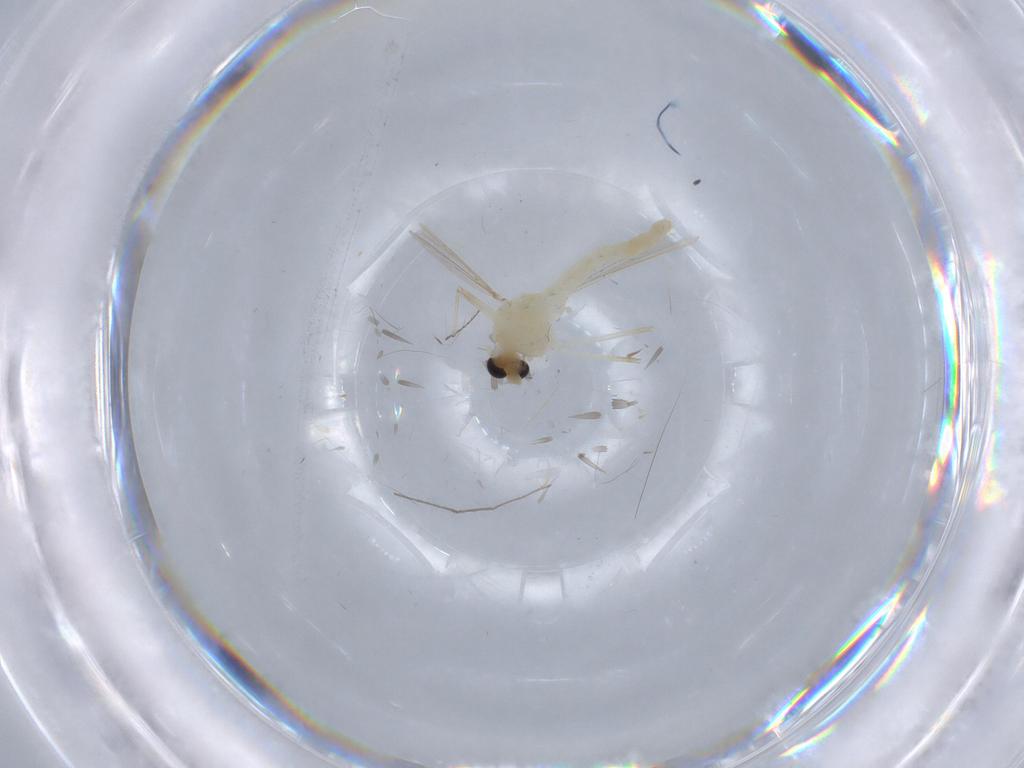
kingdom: Animalia
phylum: Arthropoda
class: Insecta
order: Diptera
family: Chironomidae
